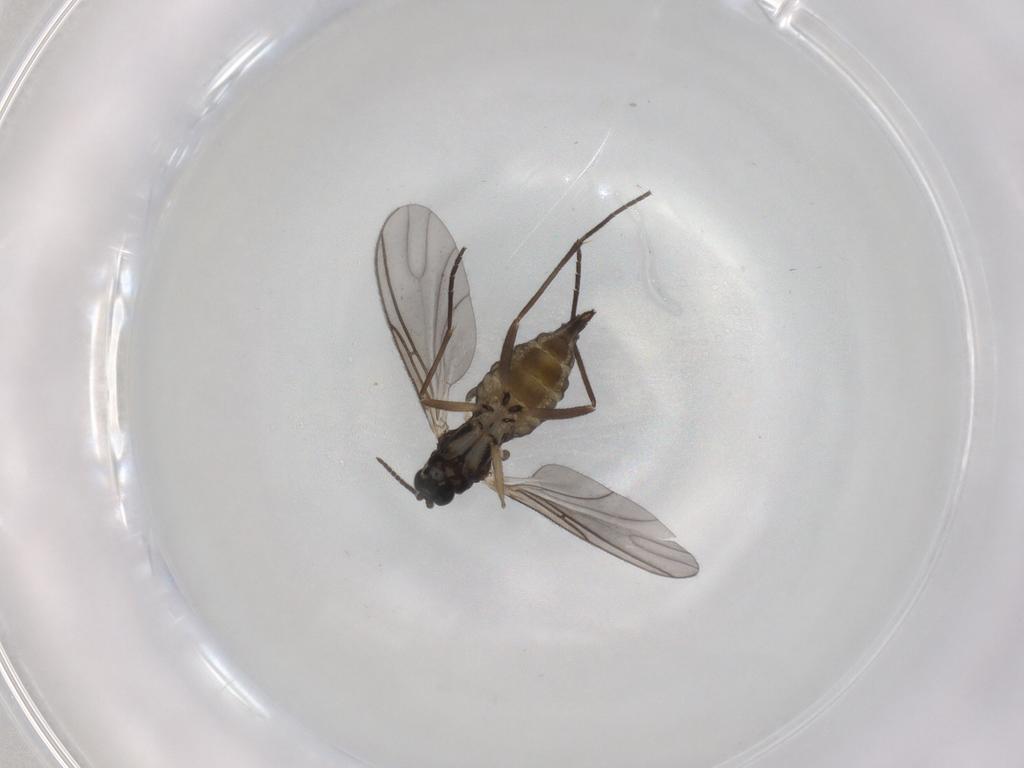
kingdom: Animalia
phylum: Arthropoda
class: Insecta
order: Diptera
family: Sciaridae
